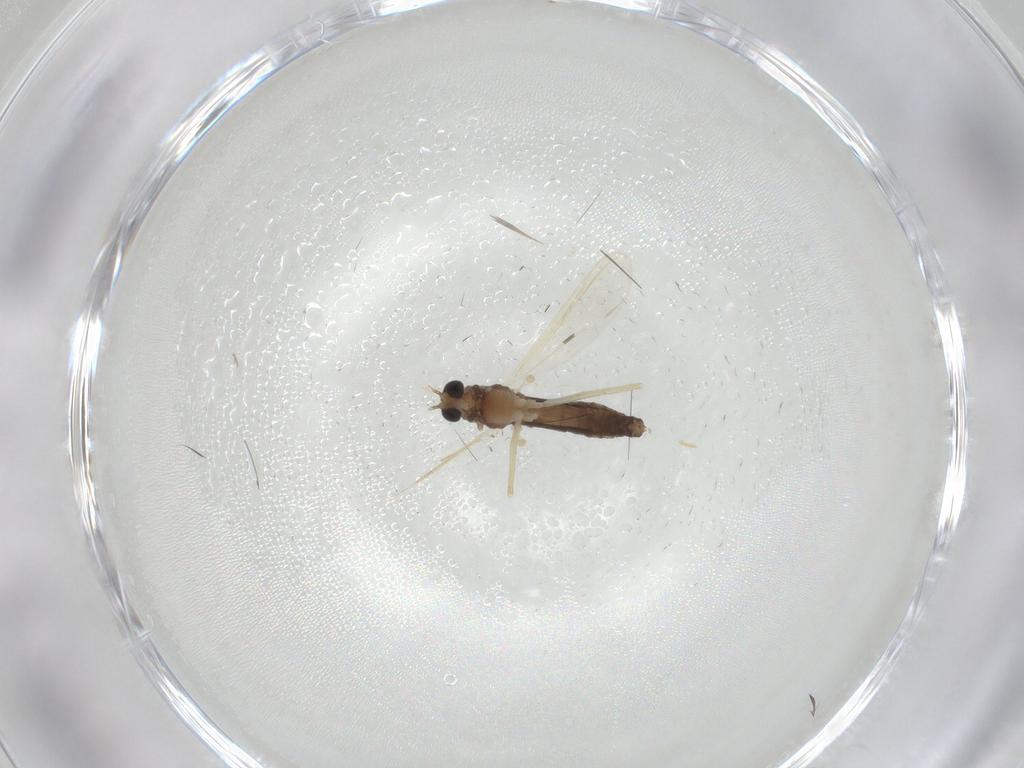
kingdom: Animalia
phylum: Arthropoda
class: Insecta
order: Diptera
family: Chironomidae
